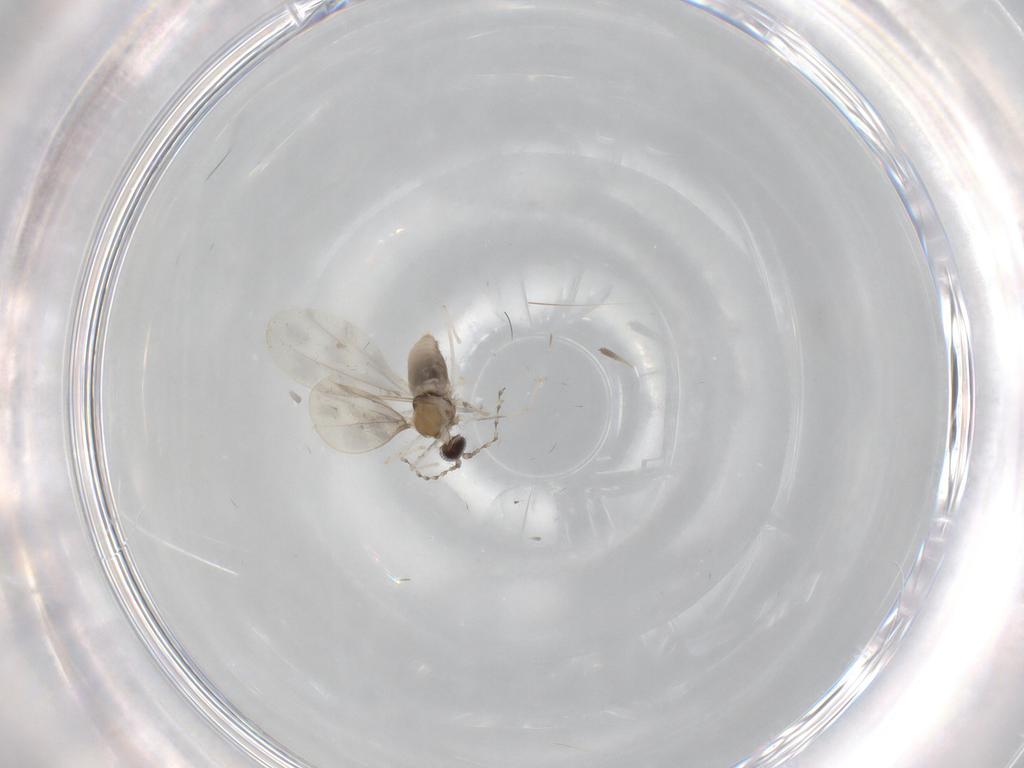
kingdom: Animalia
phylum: Arthropoda
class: Insecta
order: Diptera
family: Cecidomyiidae
